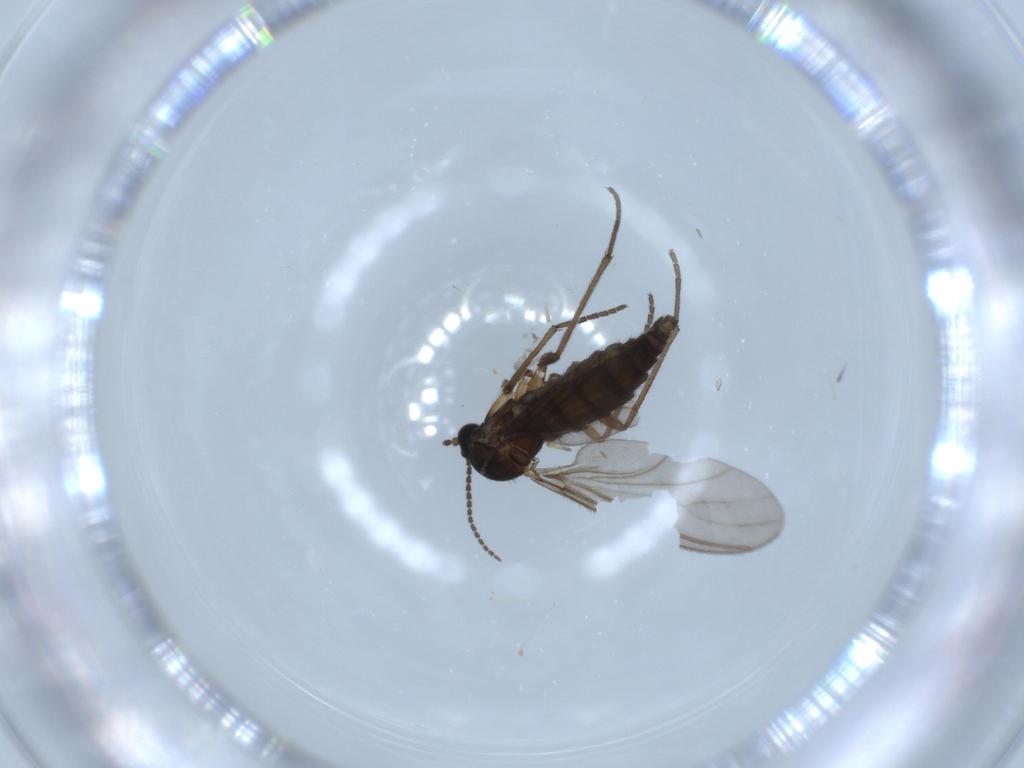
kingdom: Animalia
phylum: Arthropoda
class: Insecta
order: Diptera
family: Sciaridae
